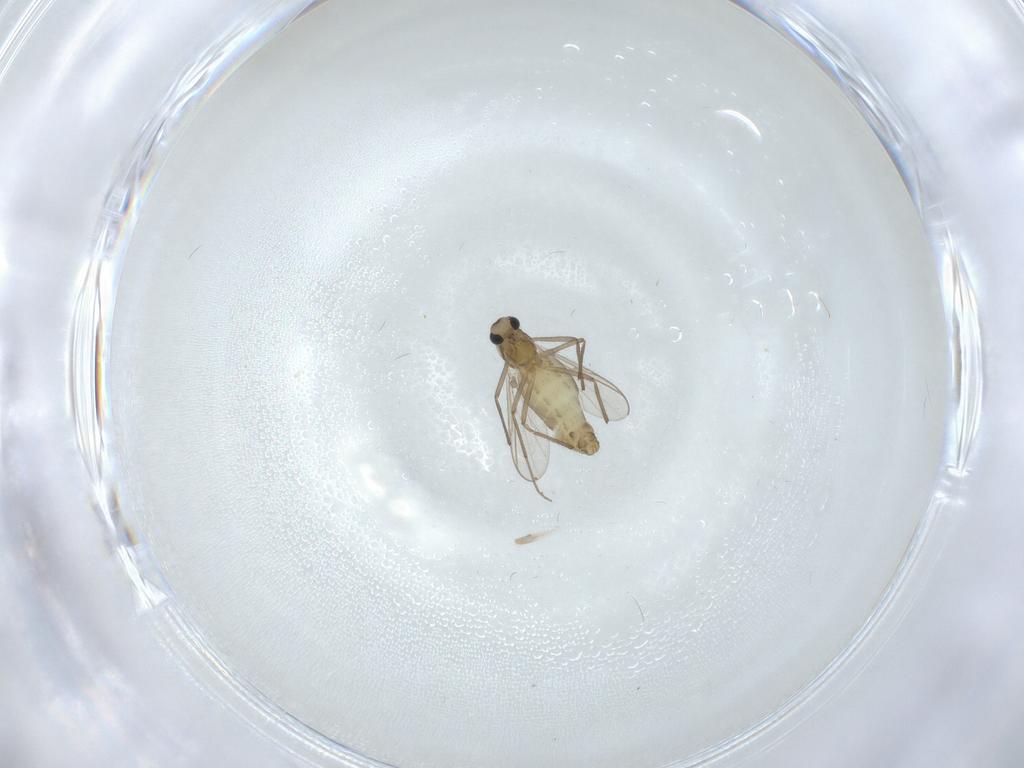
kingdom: Animalia
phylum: Arthropoda
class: Insecta
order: Diptera
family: Chironomidae
